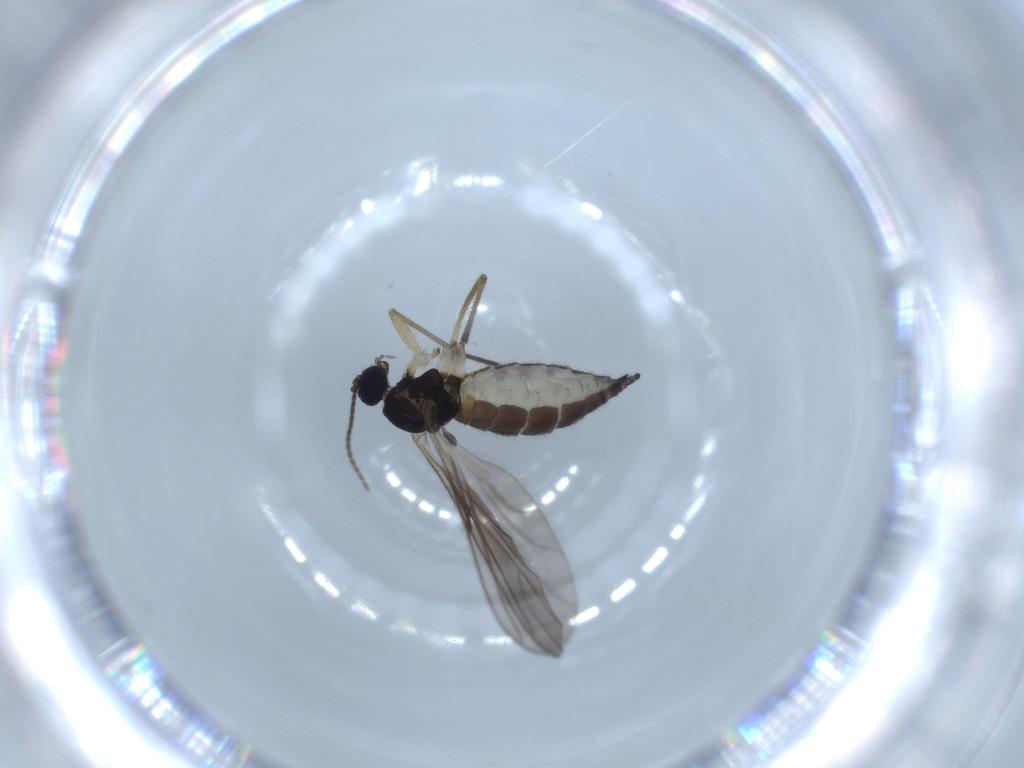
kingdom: Animalia
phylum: Arthropoda
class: Insecta
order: Diptera
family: Sciaridae
